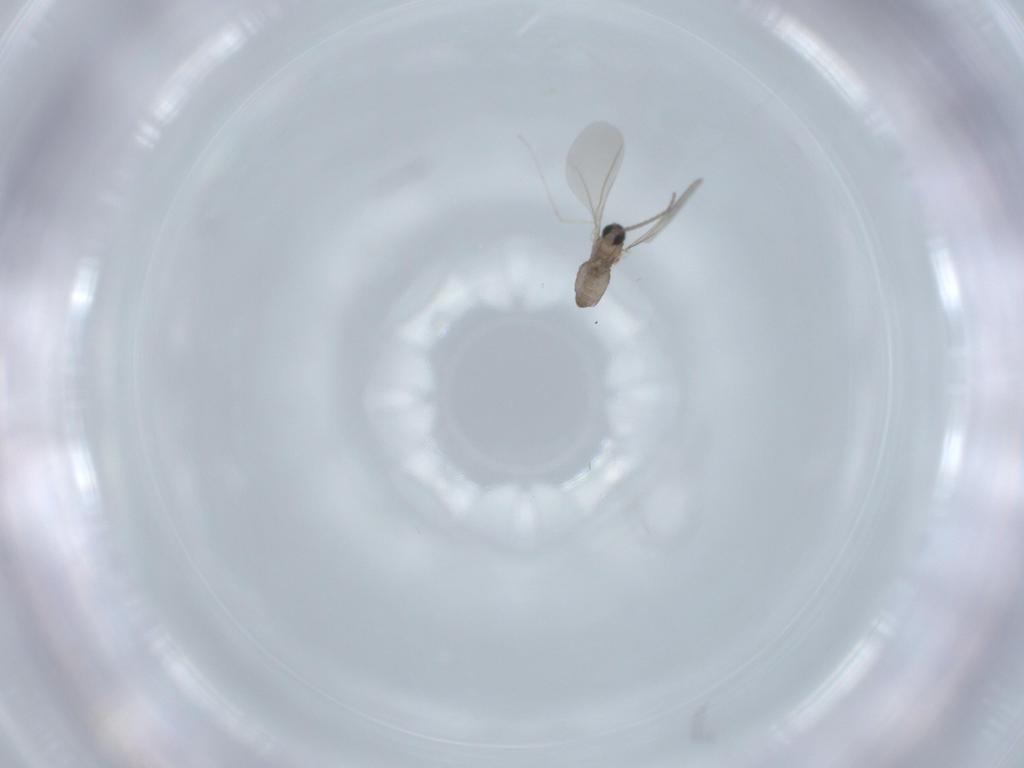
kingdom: Animalia
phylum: Arthropoda
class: Insecta
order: Diptera
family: Cecidomyiidae
